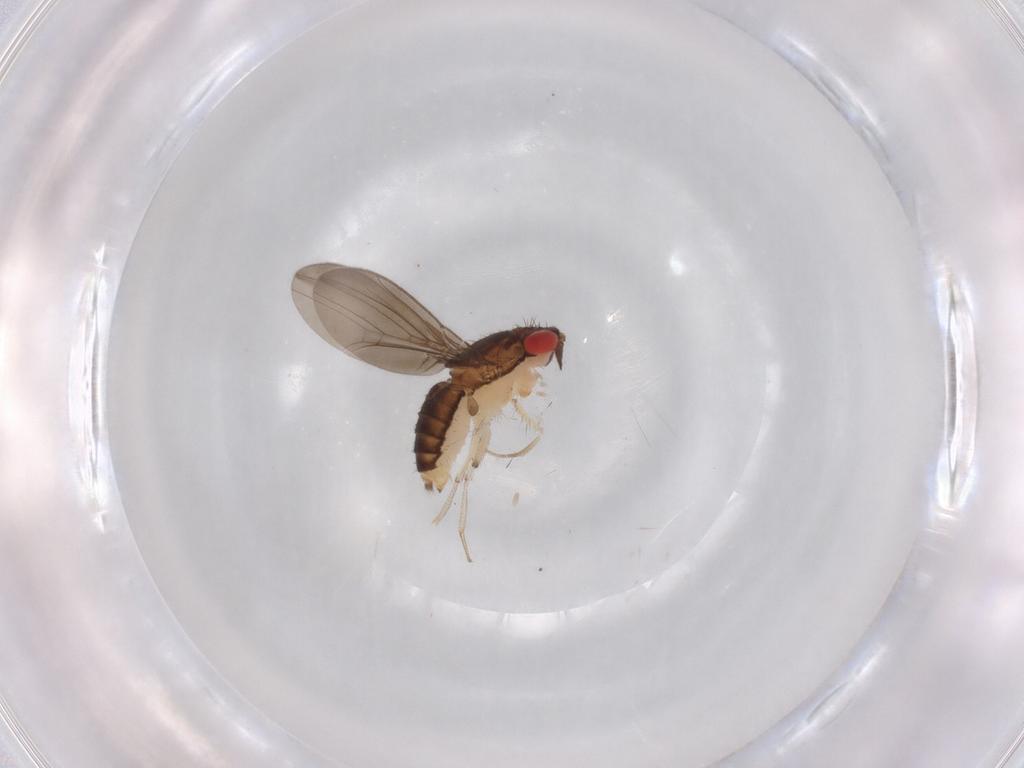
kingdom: Animalia
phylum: Arthropoda
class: Insecta
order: Diptera
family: Drosophilidae
